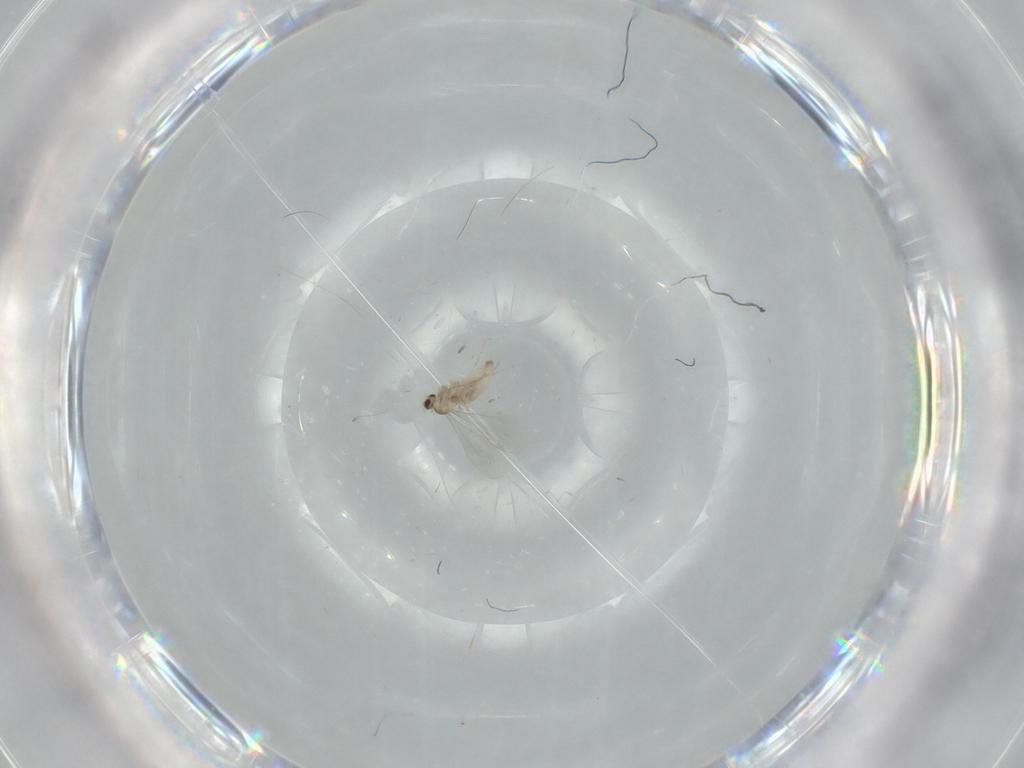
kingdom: Animalia
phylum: Arthropoda
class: Insecta
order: Diptera
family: Cecidomyiidae
